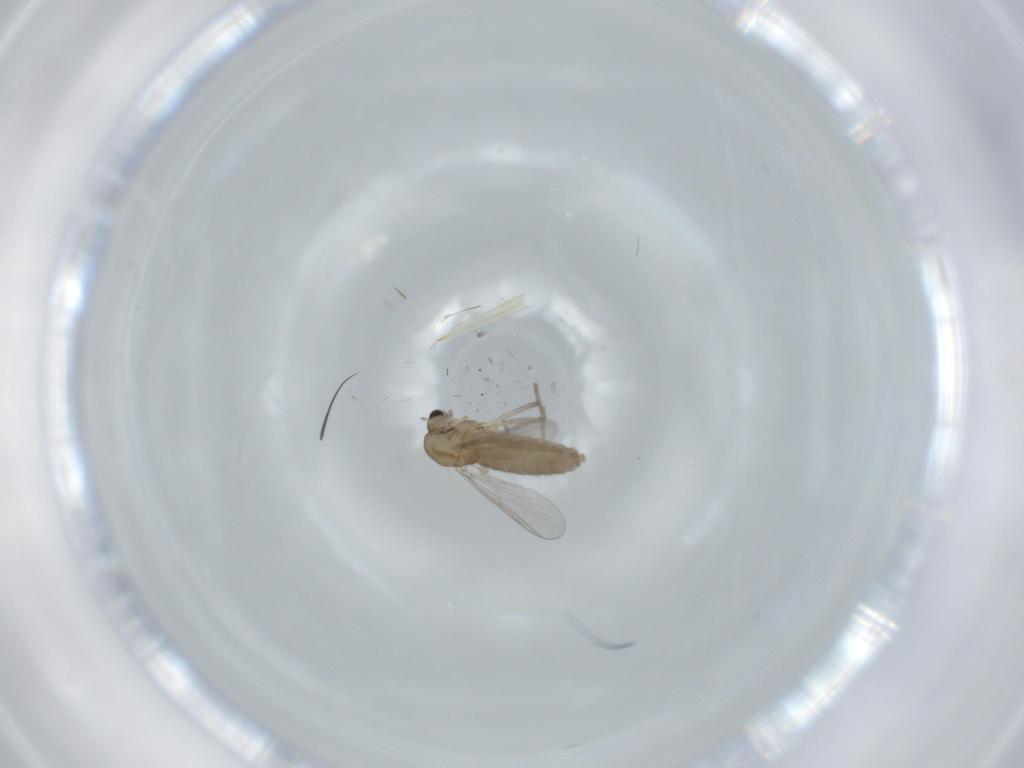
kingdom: Animalia
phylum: Arthropoda
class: Insecta
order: Diptera
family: Chironomidae
